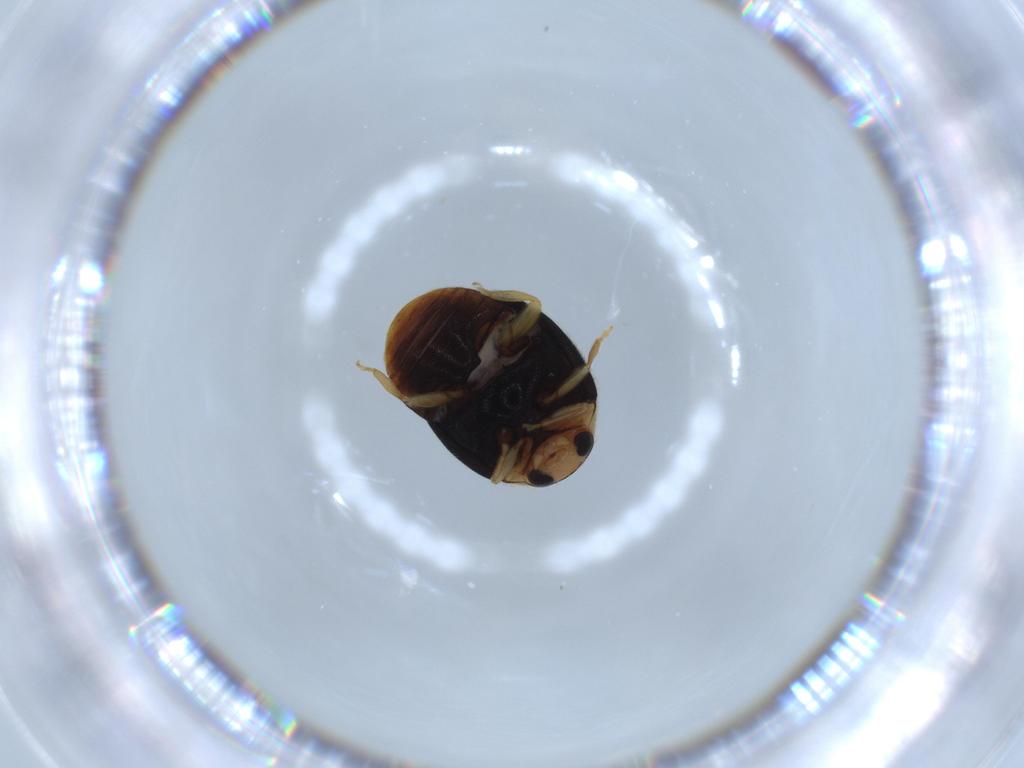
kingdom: Animalia
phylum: Arthropoda
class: Insecta
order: Coleoptera
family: Coccinellidae
